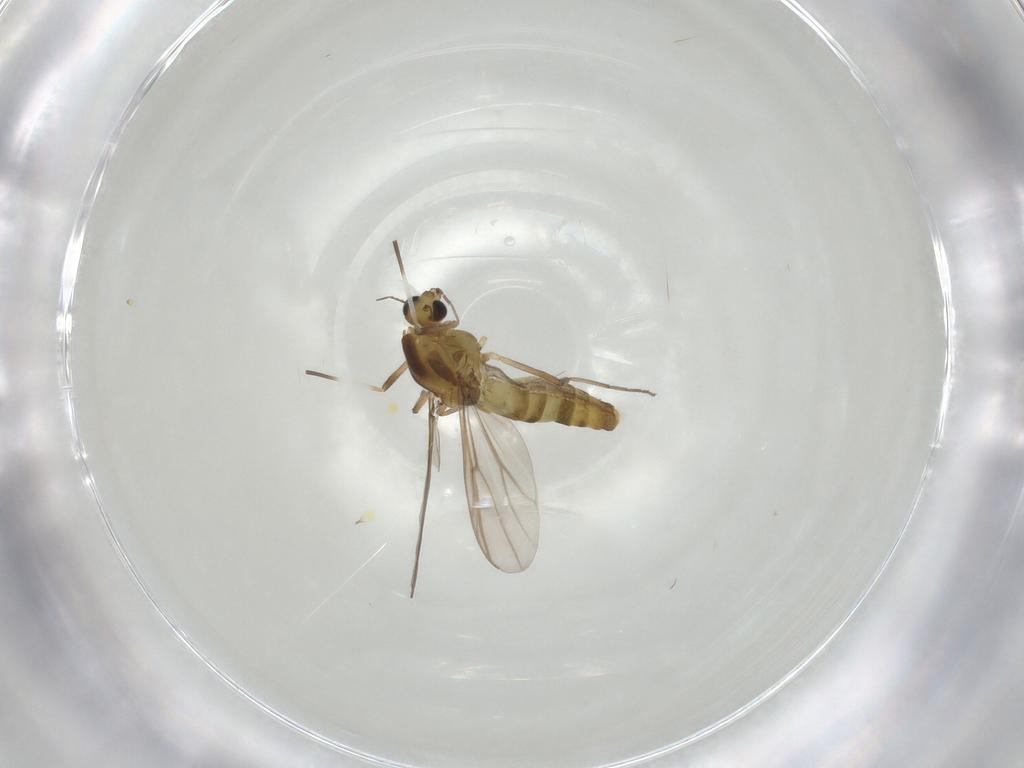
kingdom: Animalia
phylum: Arthropoda
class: Insecta
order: Diptera
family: Chironomidae
